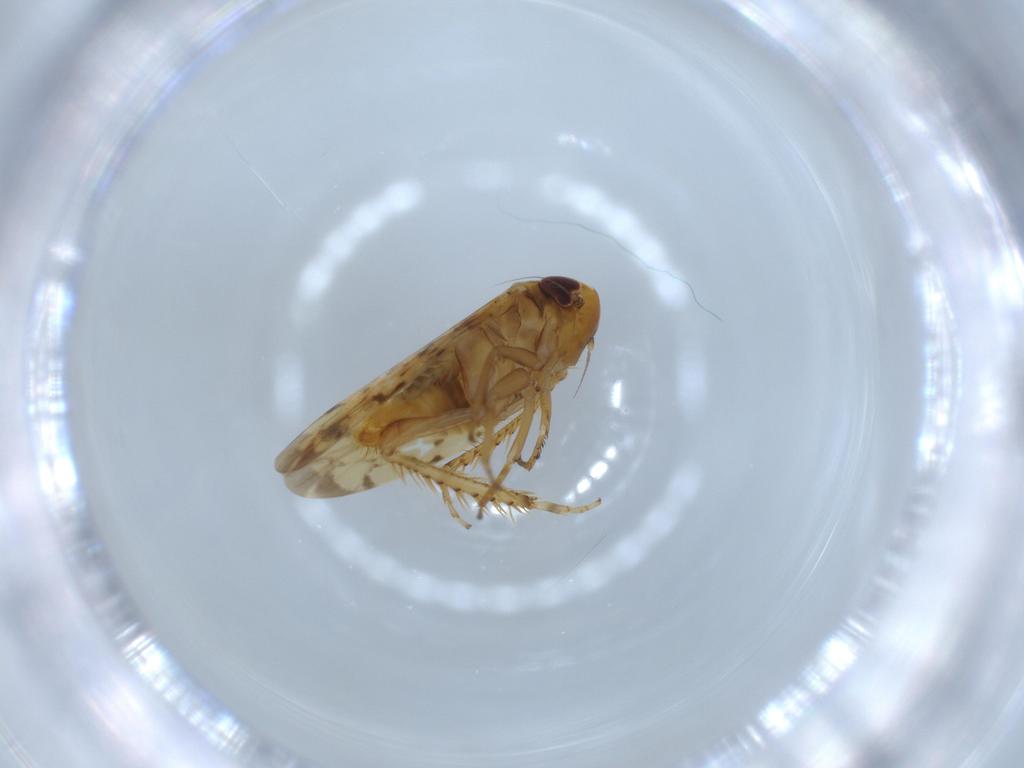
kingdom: Animalia
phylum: Arthropoda
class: Insecta
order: Hemiptera
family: Cicadellidae
